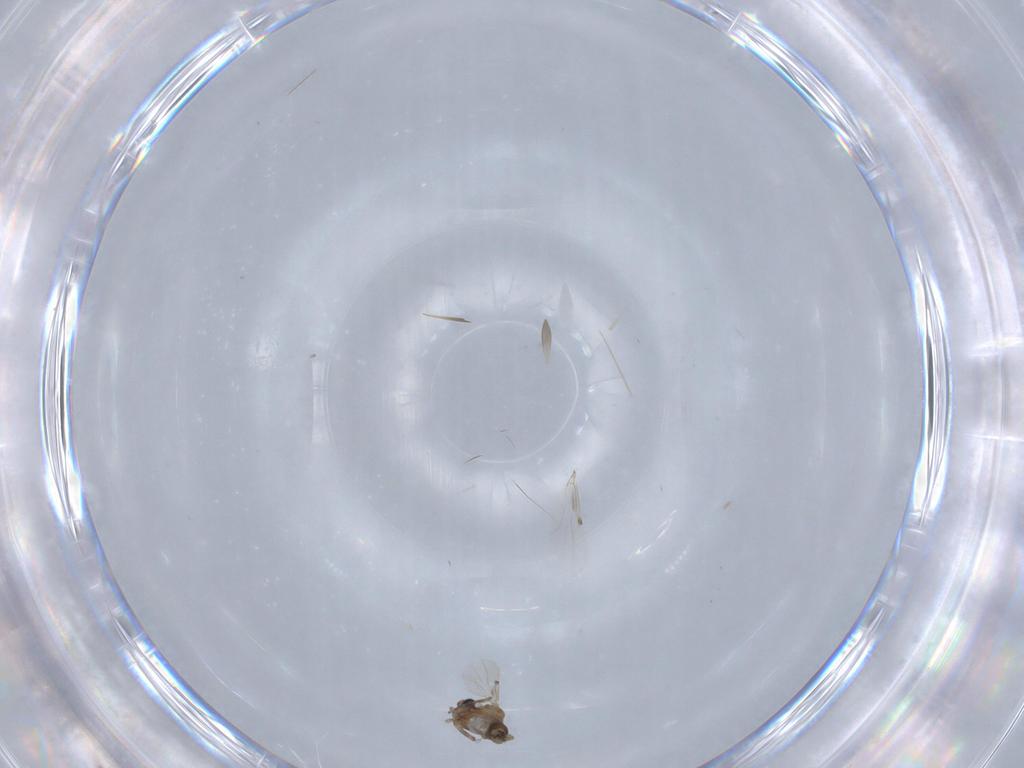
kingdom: Animalia
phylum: Arthropoda
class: Insecta
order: Diptera
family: Ceratopogonidae
